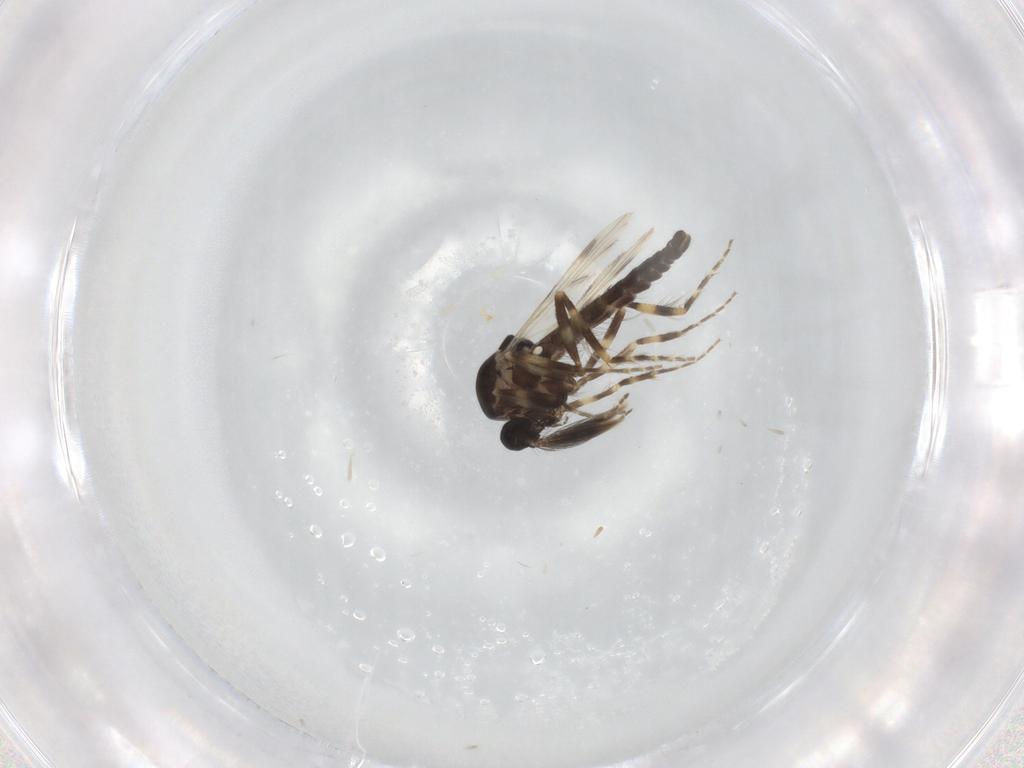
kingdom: Animalia
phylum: Arthropoda
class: Insecta
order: Diptera
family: Ceratopogonidae
